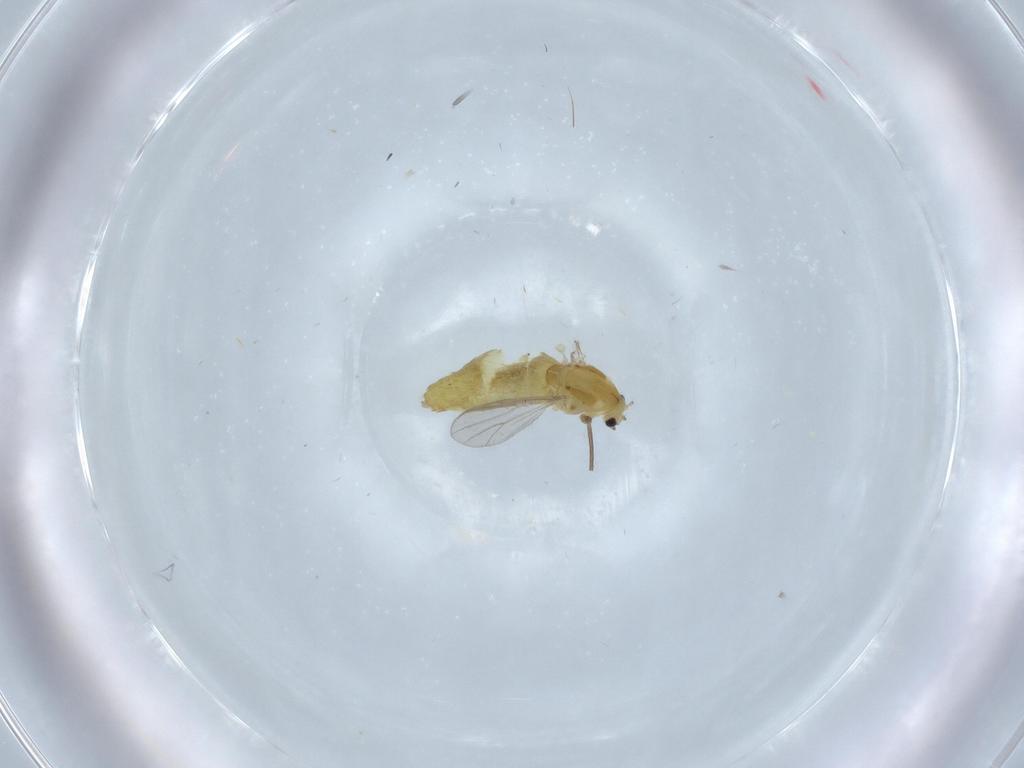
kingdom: Animalia
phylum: Arthropoda
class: Insecta
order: Diptera
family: Chironomidae
